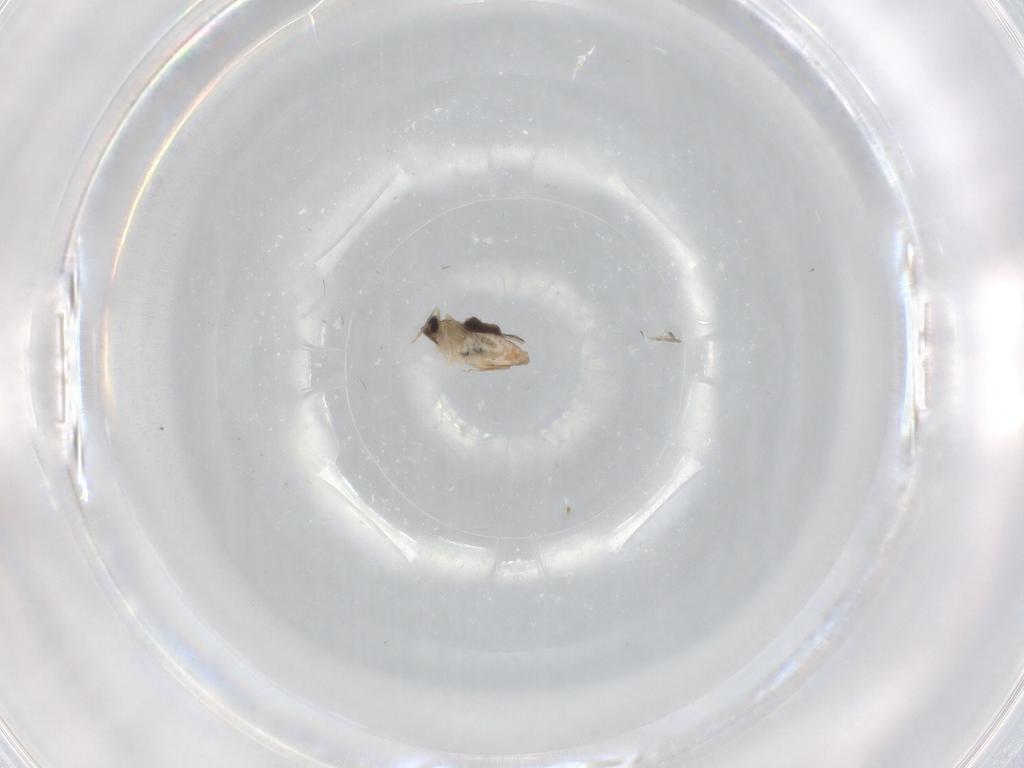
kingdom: Animalia
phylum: Arthropoda
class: Insecta
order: Diptera
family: Cecidomyiidae
